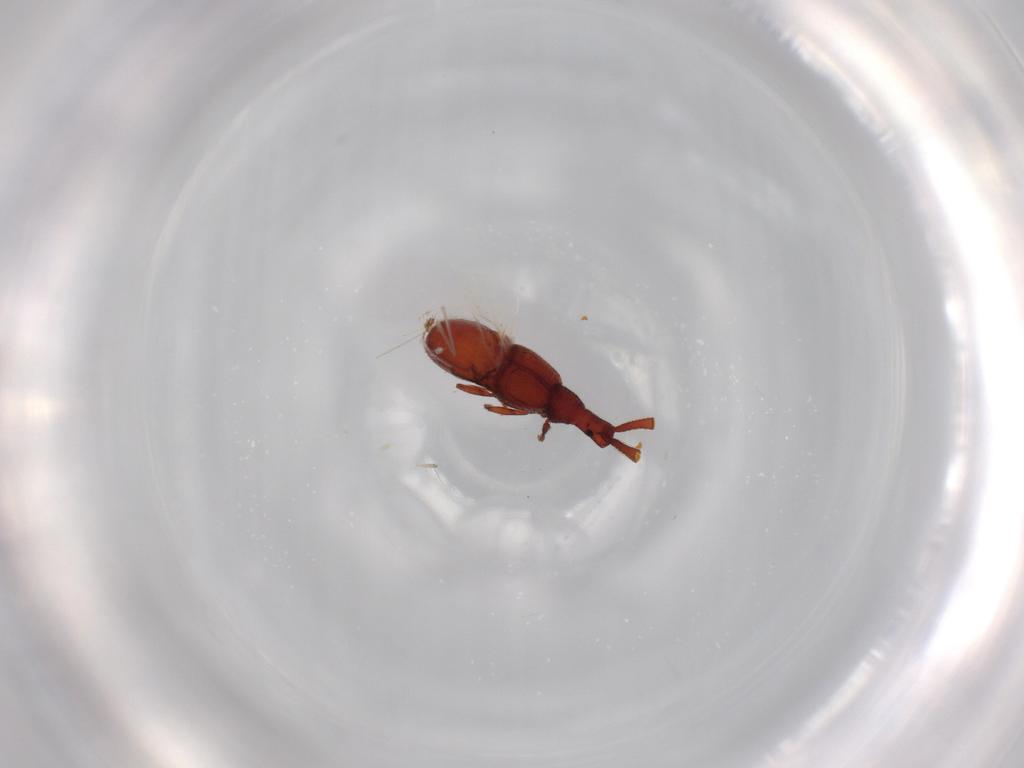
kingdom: Animalia
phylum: Arthropoda
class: Insecta
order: Coleoptera
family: Staphylinidae
